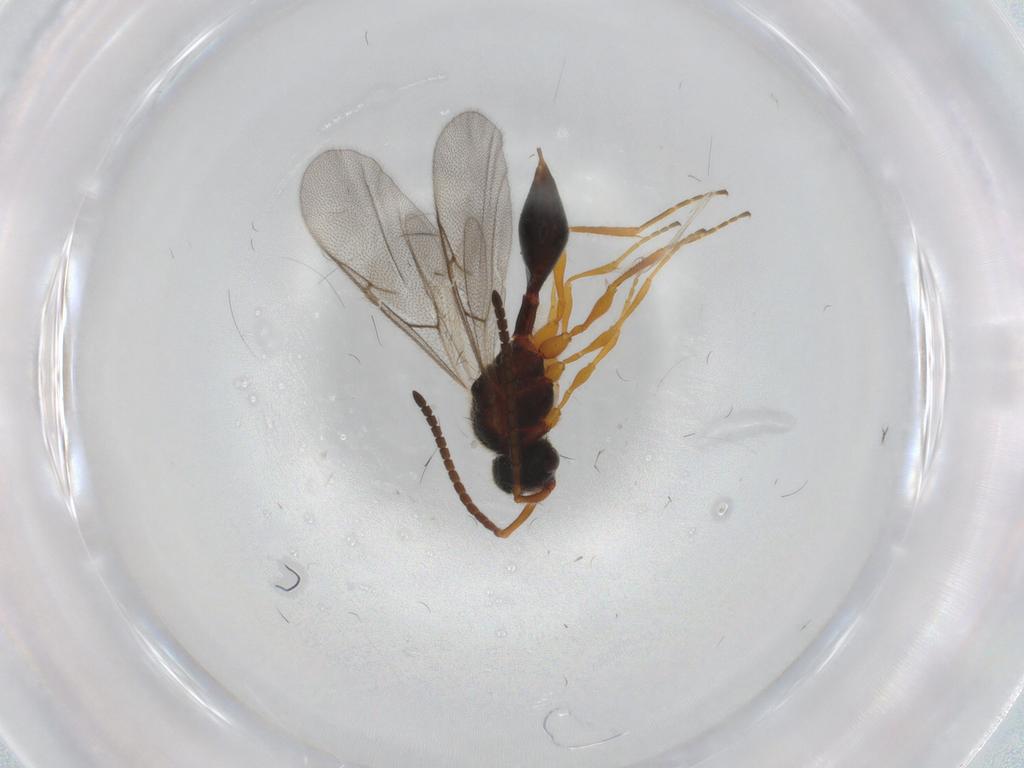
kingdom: Animalia
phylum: Arthropoda
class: Insecta
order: Hymenoptera
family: Diapriidae
